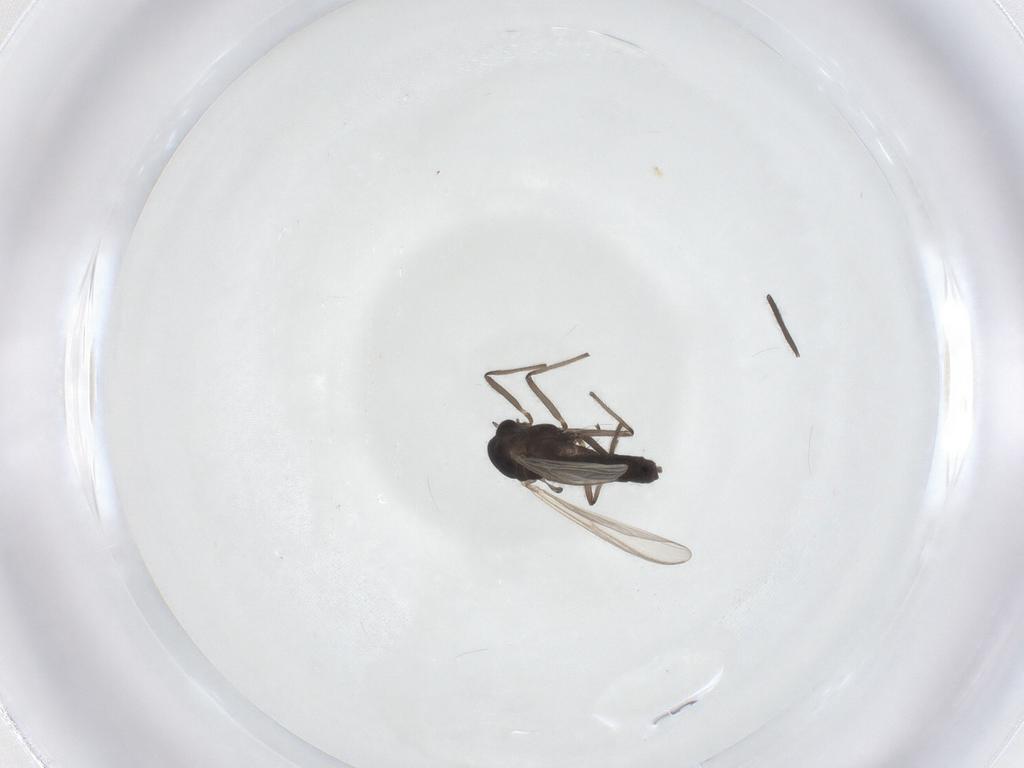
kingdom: Animalia
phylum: Arthropoda
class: Insecta
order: Diptera
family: Chironomidae
